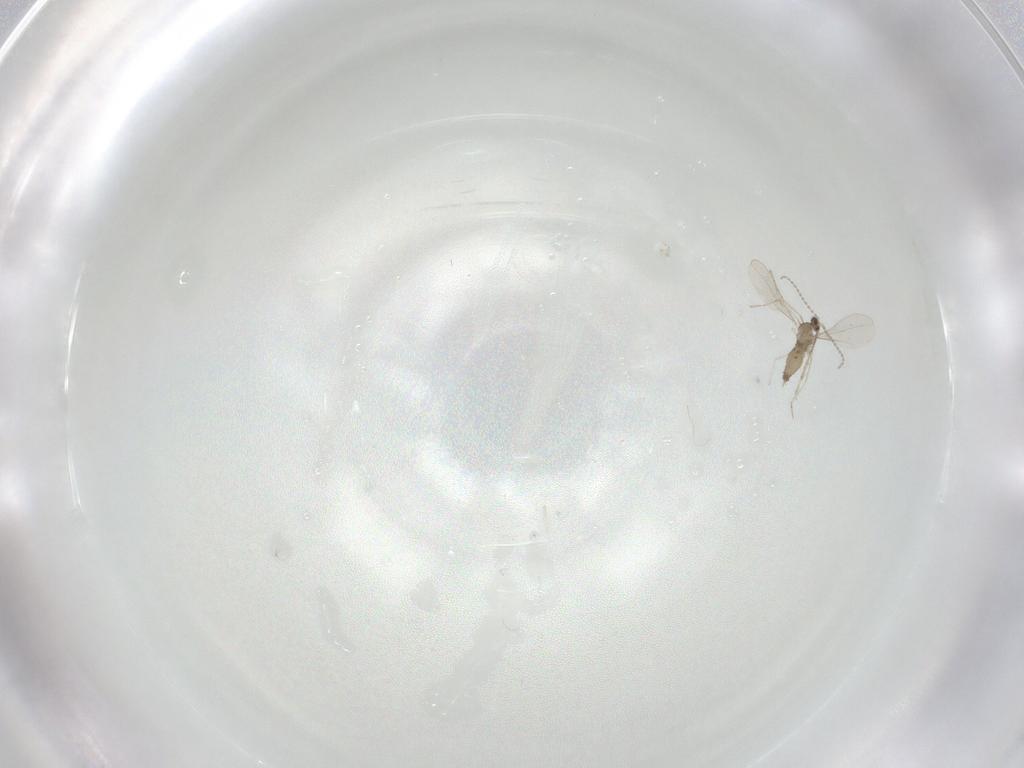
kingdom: Animalia
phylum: Arthropoda
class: Insecta
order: Diptera
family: Cecidomyiidae
